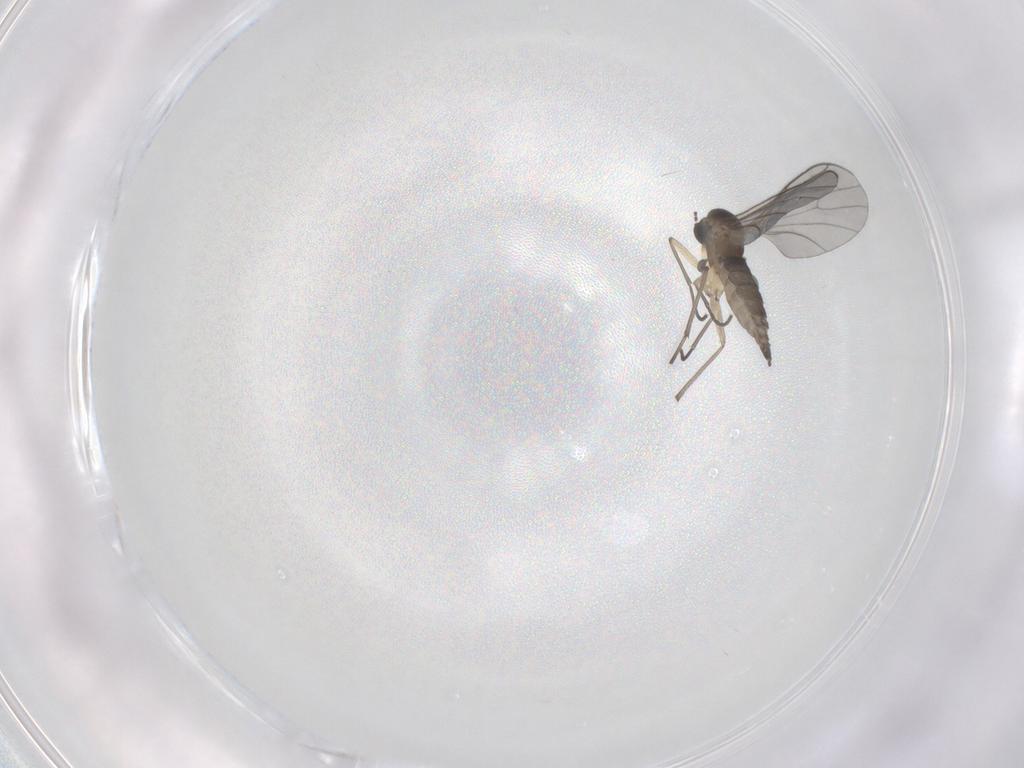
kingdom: Animalia
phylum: Arthropoda
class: Insecta
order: Diptera
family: Sciaridae
